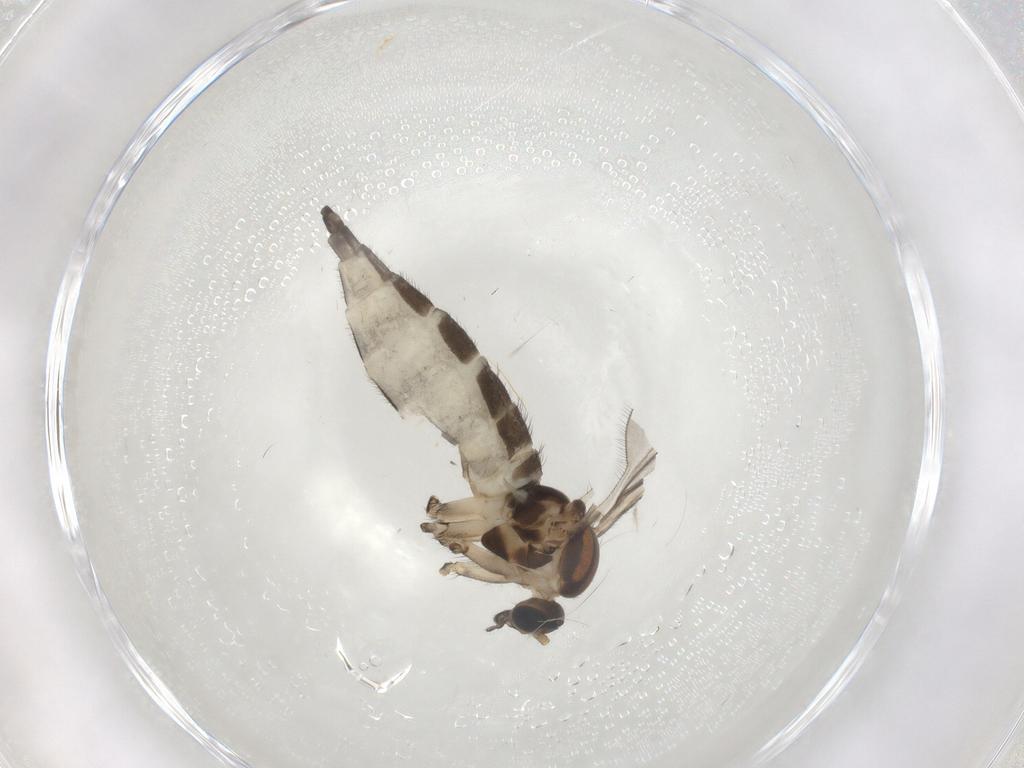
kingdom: Animalia
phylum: Arthropoda
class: Insecta
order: Diptera
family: Sciaridae
